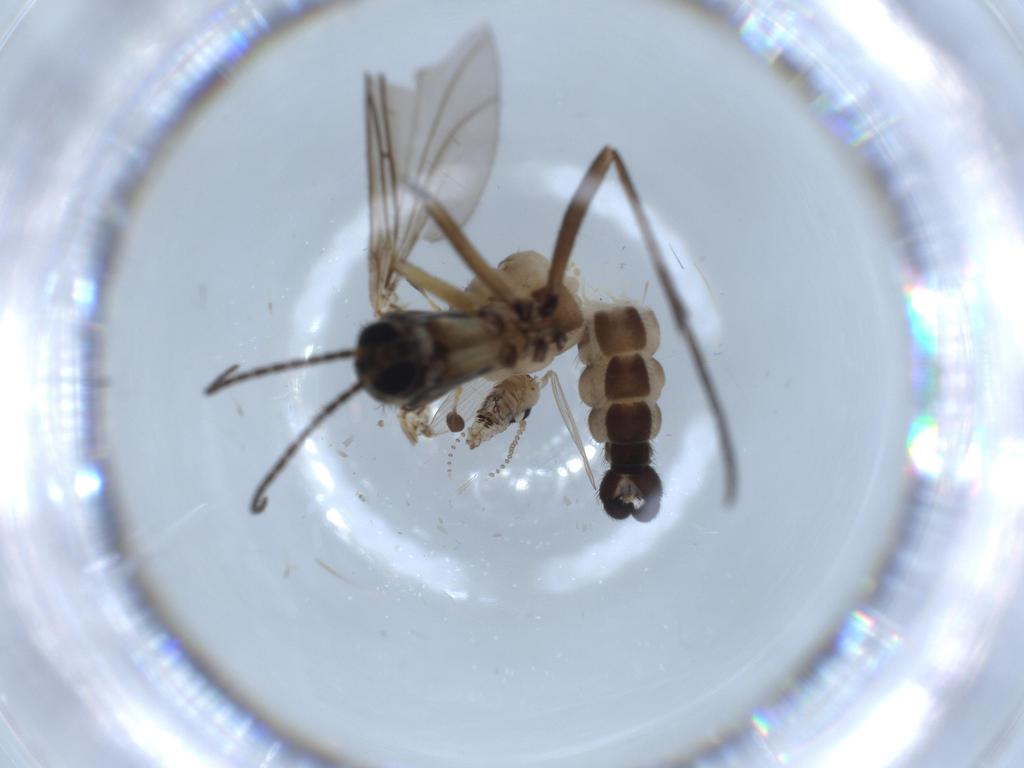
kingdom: Animalia
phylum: Arthropoda
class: Insecta
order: Diptera
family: Sciaridae
